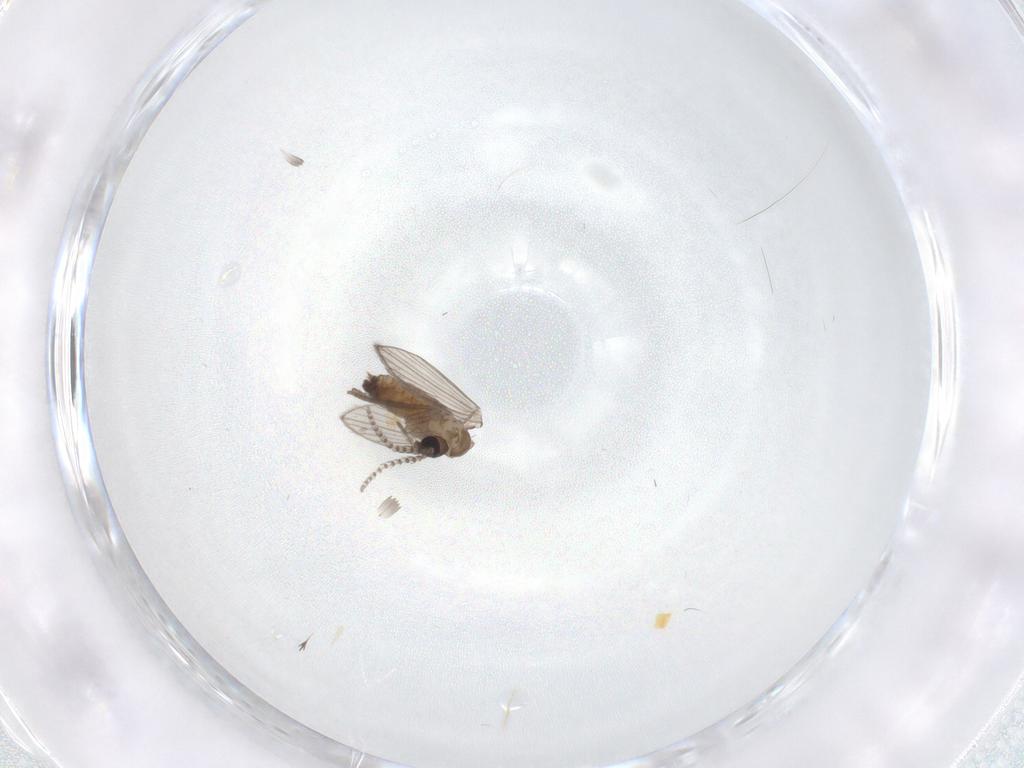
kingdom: Animalia
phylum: Arthropoda
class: Insecta
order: Diptera
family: Psychodidae
